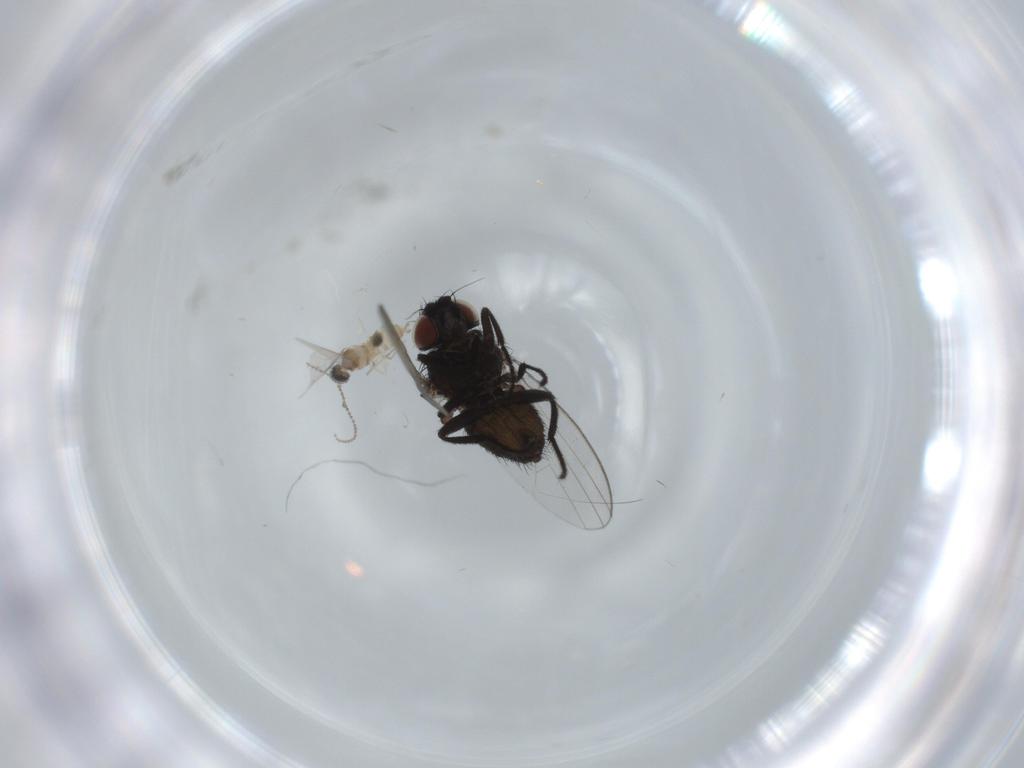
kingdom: Animalia
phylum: Arthropoda
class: Insecta
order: Diptera
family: Cecidomyiidae
